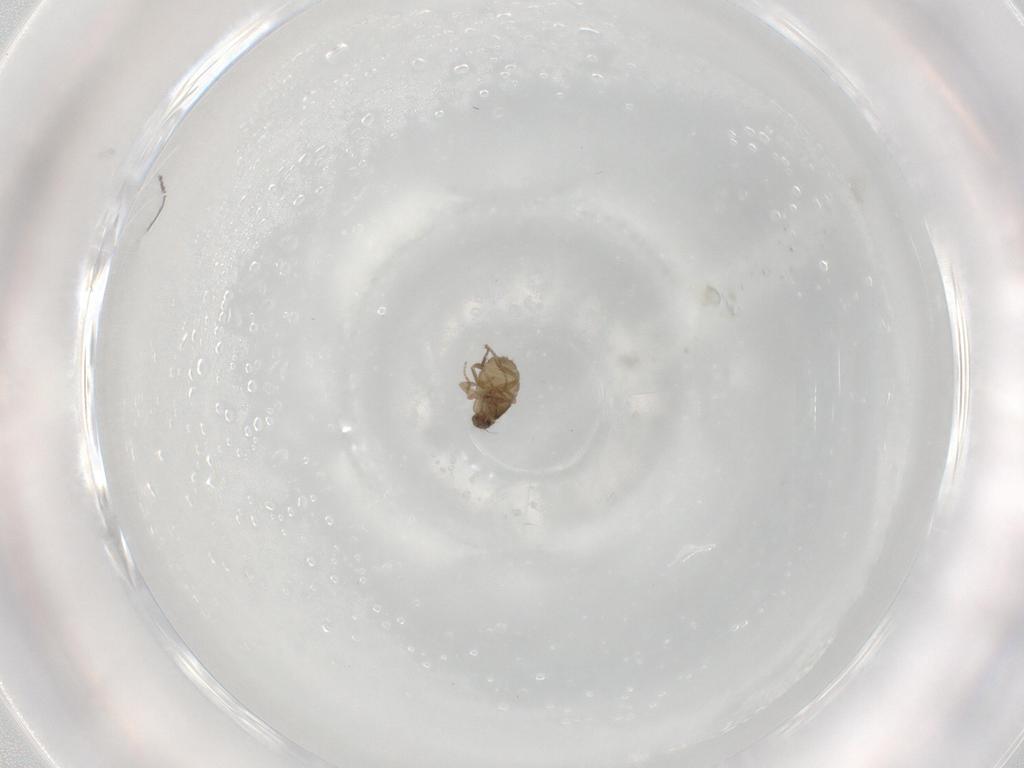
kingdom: Animalia
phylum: Arthropoda
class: Insecta
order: Diptera
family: Phoridae
